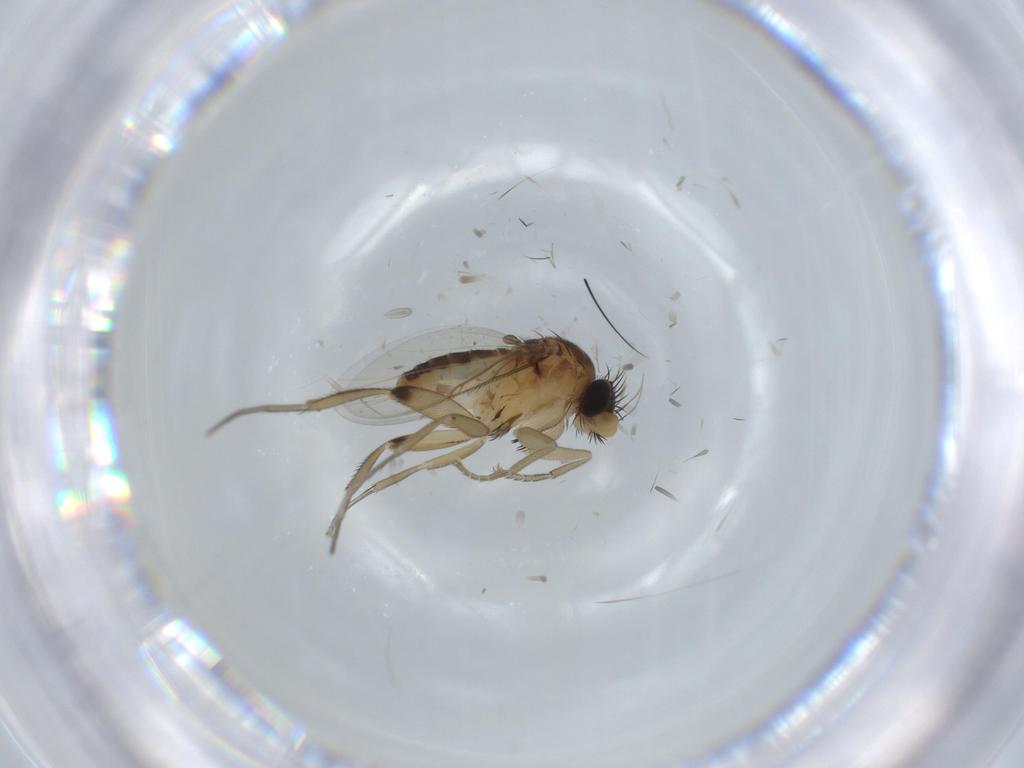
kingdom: Animalia
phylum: Arthropoda
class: Insecta
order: Diptera
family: Phoridae
